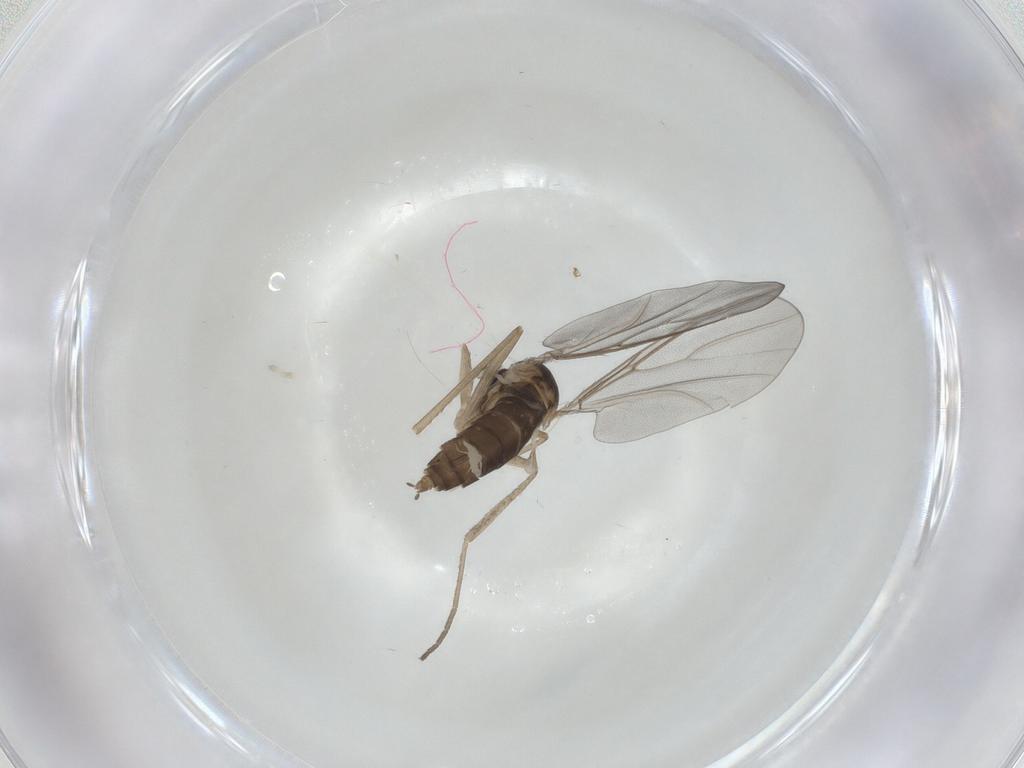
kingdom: Animalia
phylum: Arthropoda
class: Insecta
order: Diptera
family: Cecidomyiidae
